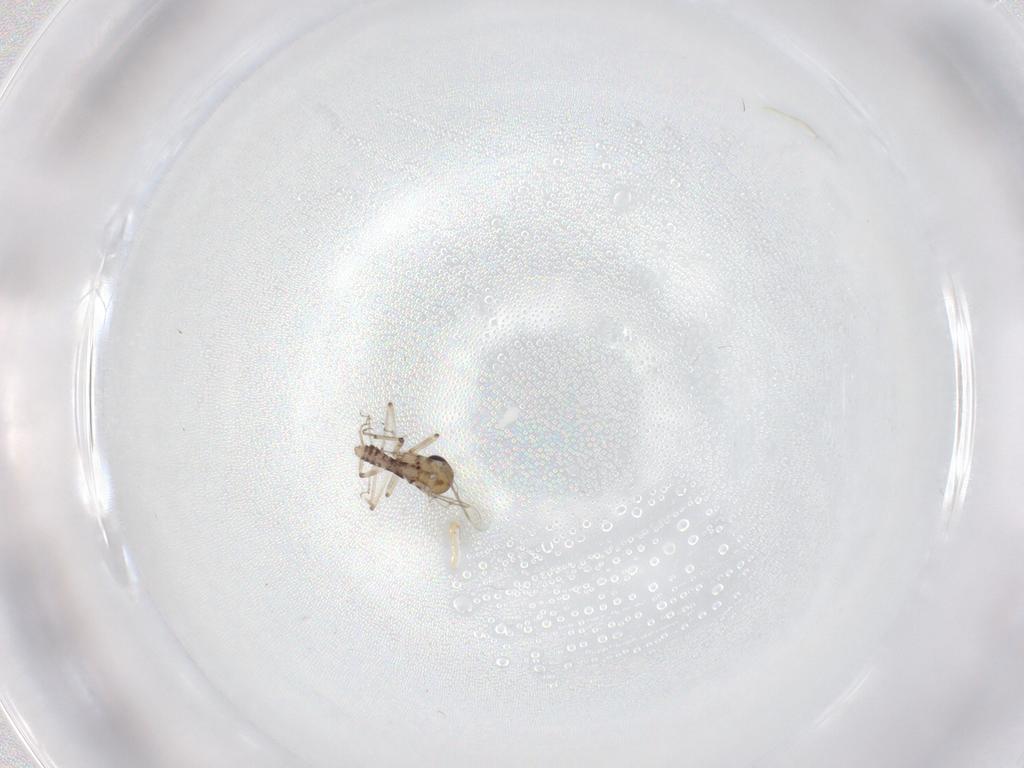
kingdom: Animalia
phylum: Arthropoda
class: Insecta
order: Diptera
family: Ceratopogonidae
